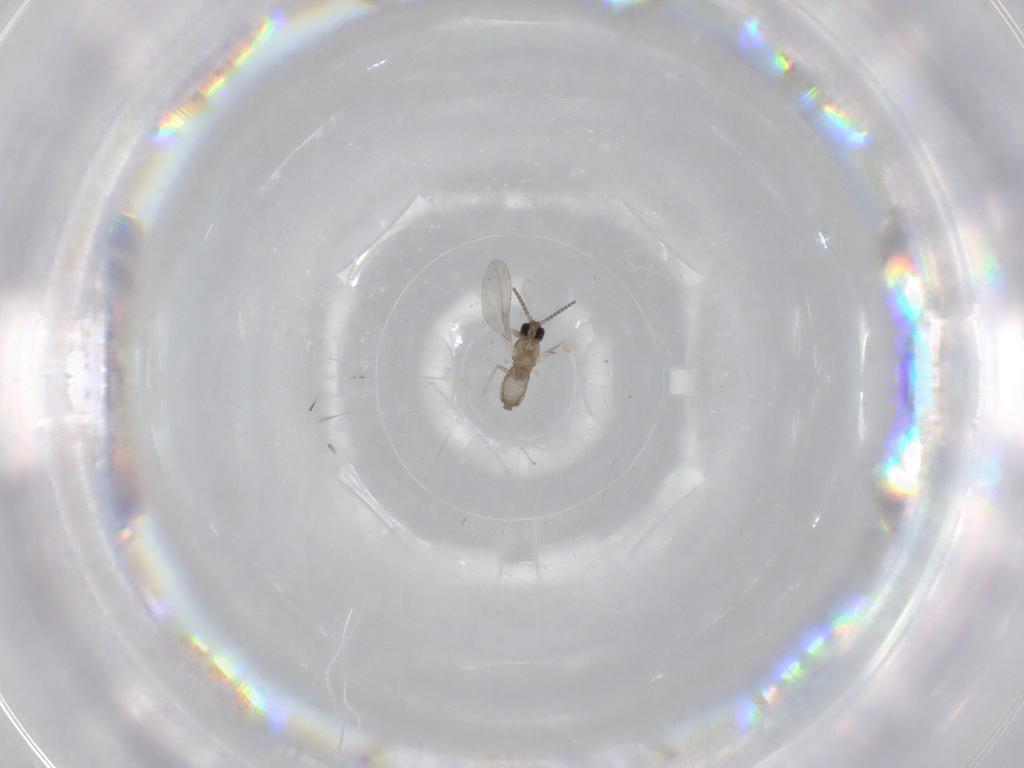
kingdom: Animalia
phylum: Arthropoda
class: Insecta
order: Diptera
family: Cecidomyiidae
